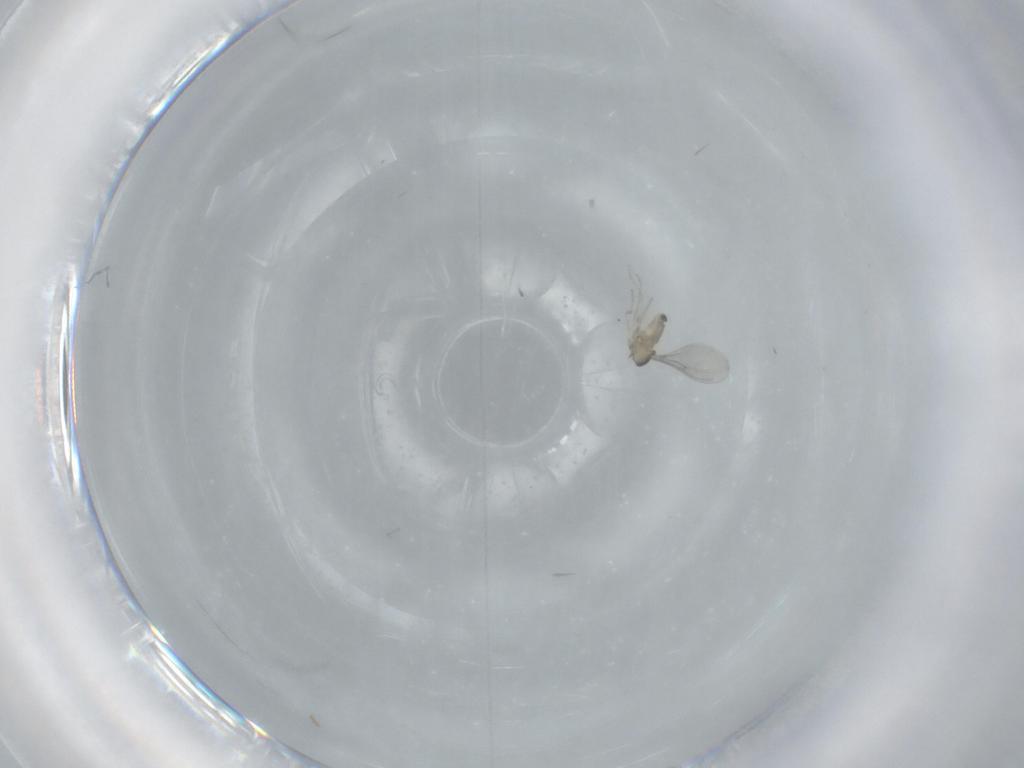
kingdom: Animalia
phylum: Arthropoda
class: Insecta
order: Diptera
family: Cecidomyiidae
